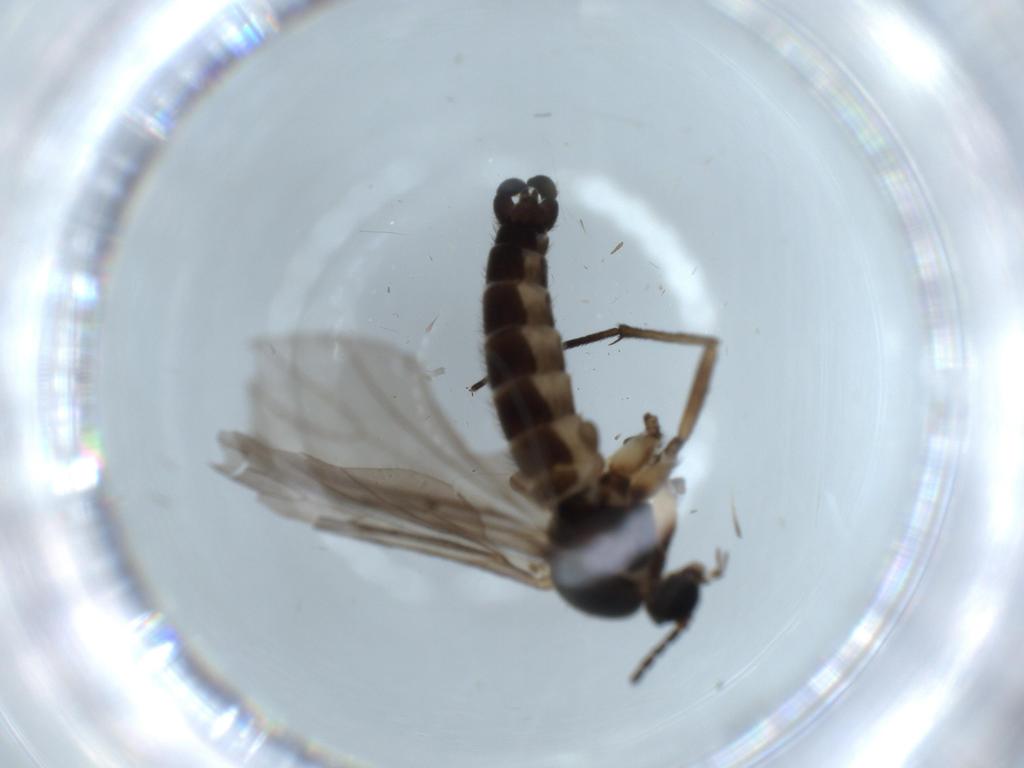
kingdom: Animalia
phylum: Arthropoda
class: Insecta
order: Diptera
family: Sciaridae
